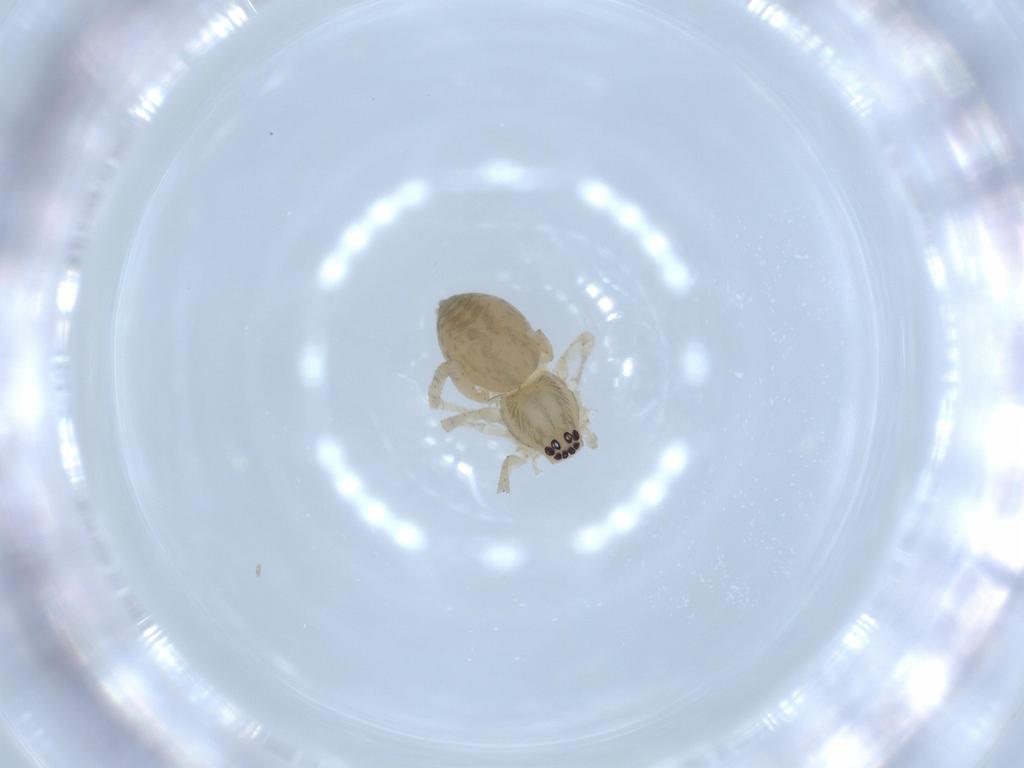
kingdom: Animalia
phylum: Arthropoda
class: Arachnida
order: Araneae
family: Anyphaenidae
